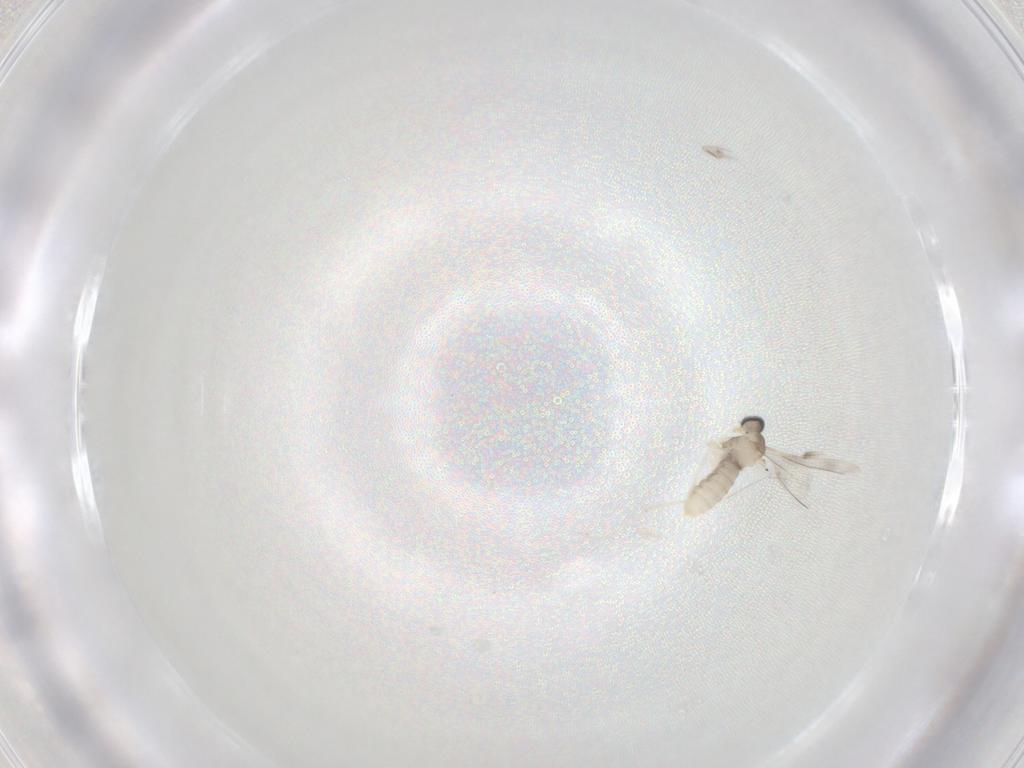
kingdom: Animalia
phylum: Arthropoda
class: Insecta
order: Diptera
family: Cecidomyiidae
